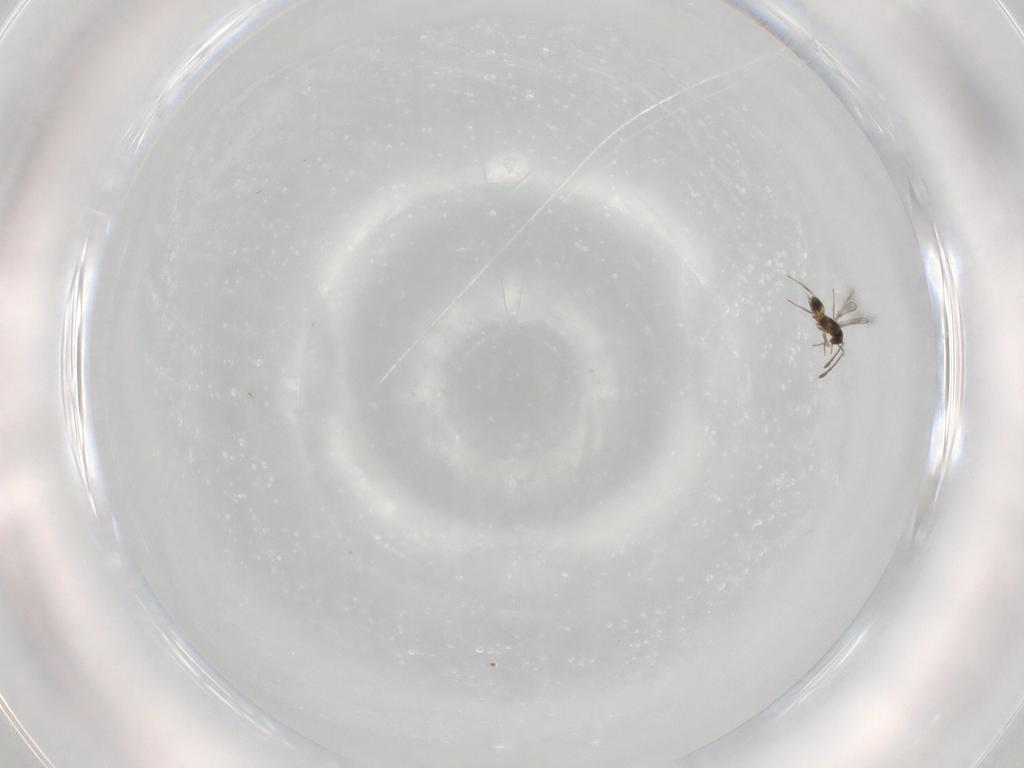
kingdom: Animalia
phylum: Arthropoda
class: Insecta
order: Hymenoptera
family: Mymaridae
